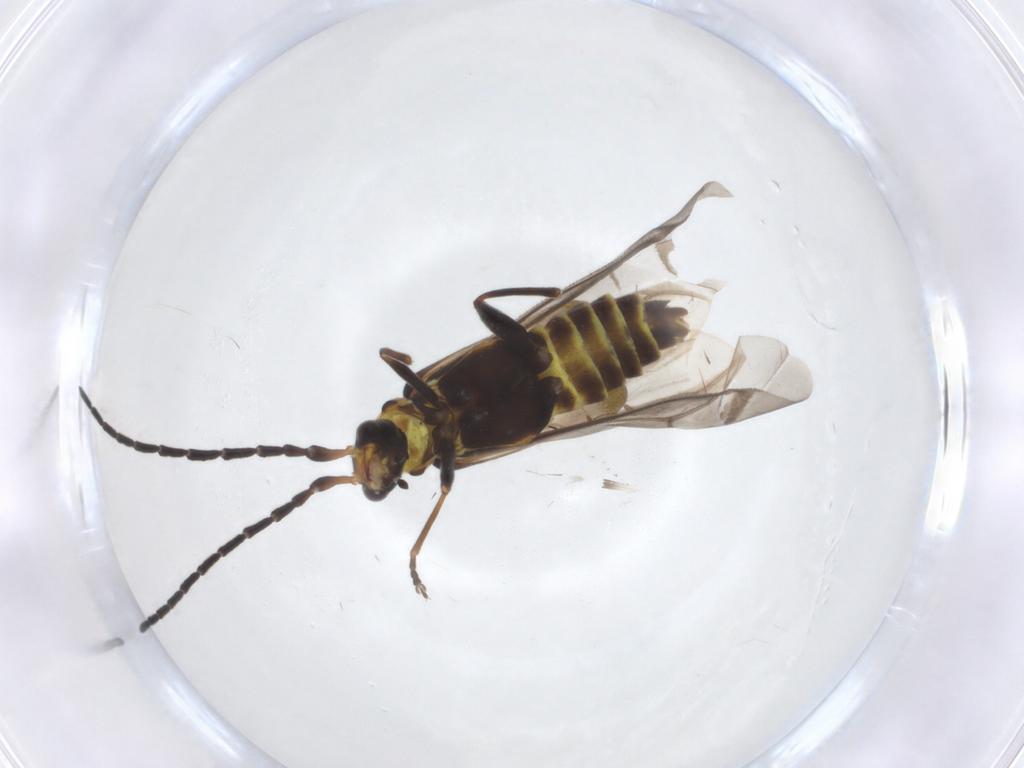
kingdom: Animalia
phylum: Arthropoda
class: Insecta
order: Coleoptera
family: Cantharidae
